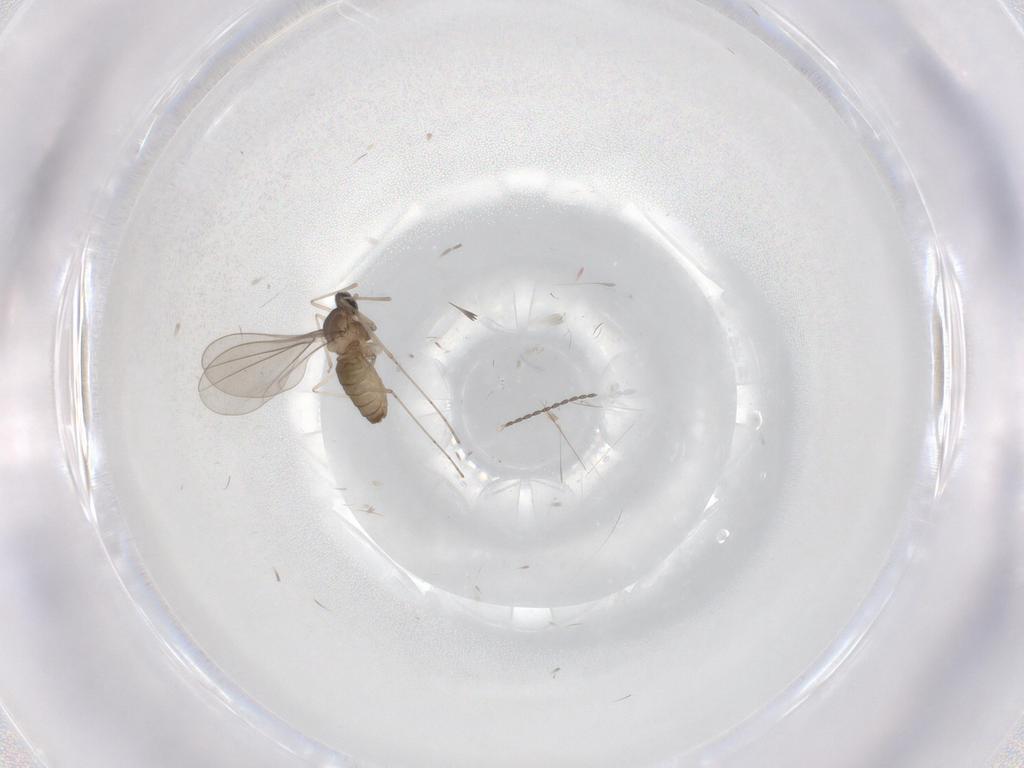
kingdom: Animalia
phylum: Arthropoda
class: Insecta
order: Diptera
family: Cecidomyiidae
